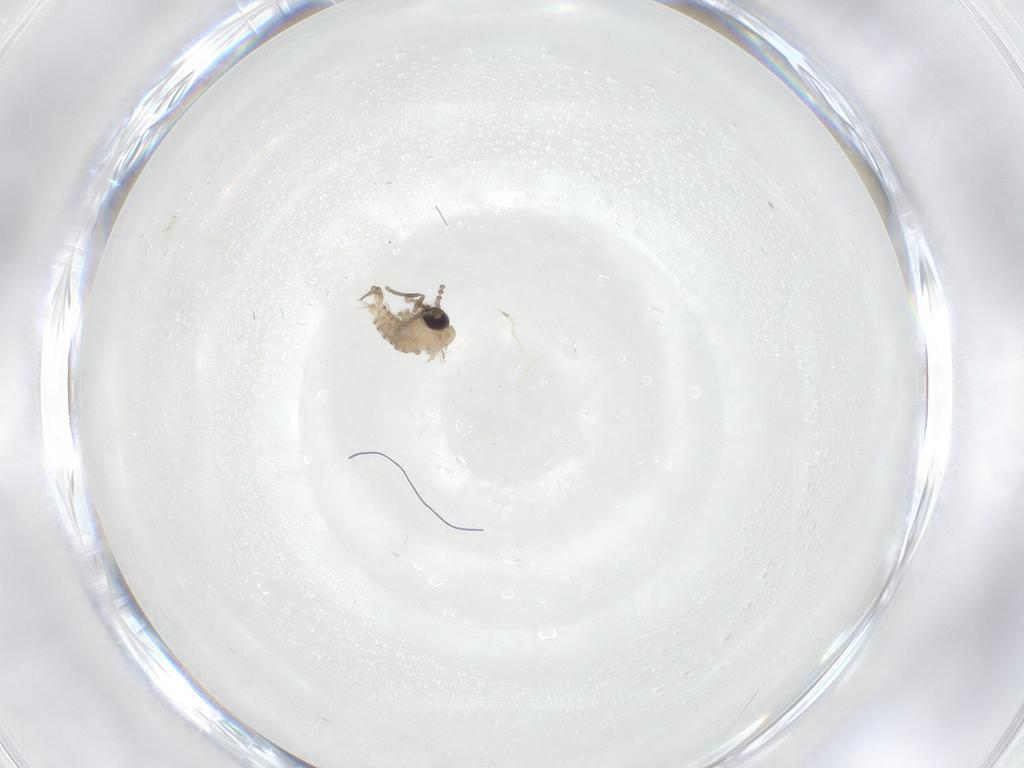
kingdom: Animalia
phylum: Arthropoda
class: Insecta
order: Diptera
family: Psychodidae
